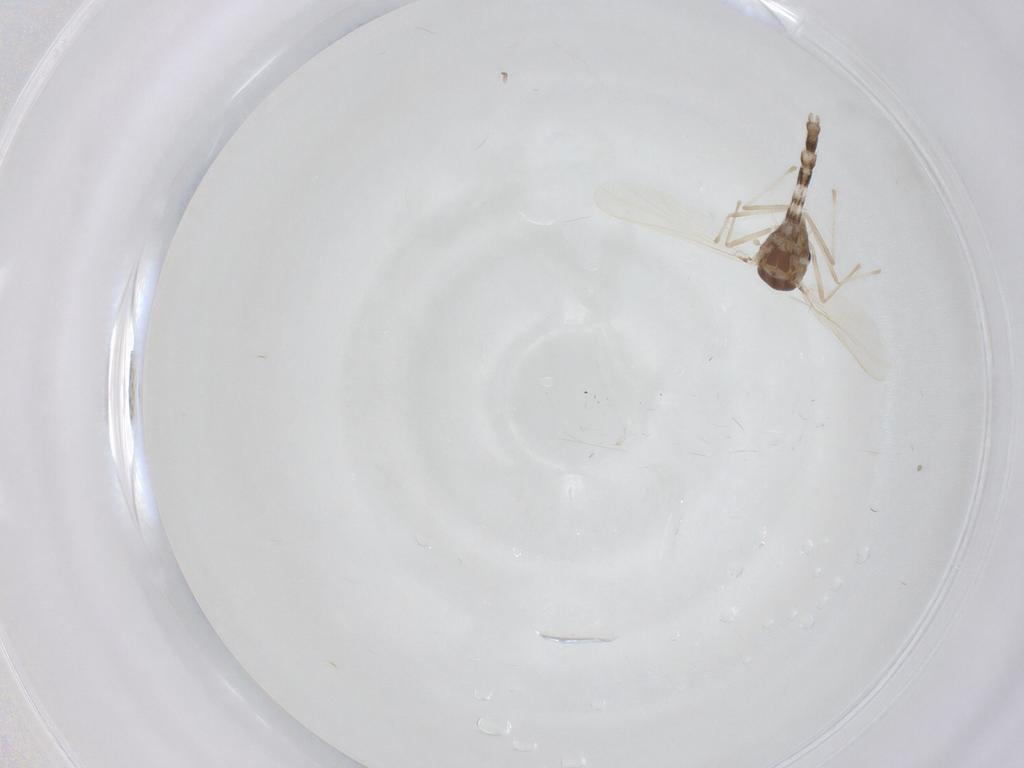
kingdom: Animalia
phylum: Arthropoda
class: Insecta
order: Diptera
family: Chironomidae
